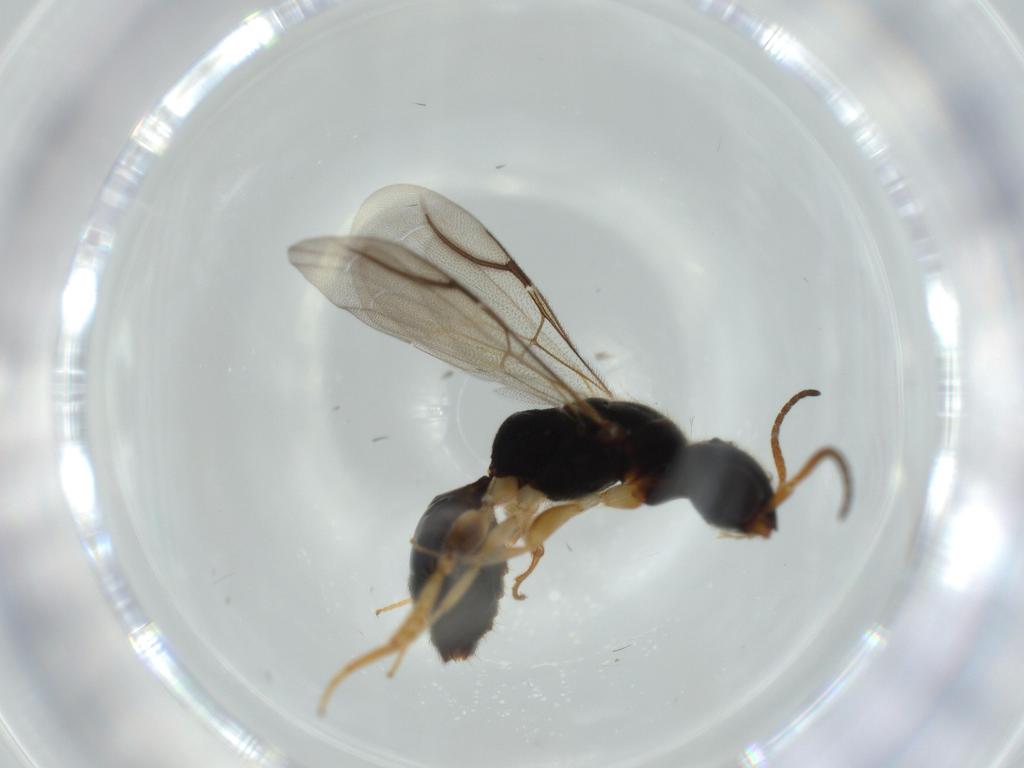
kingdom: Animalia
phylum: Arthropoda
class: Insecta
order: Hymenoptera
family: Bethylidae
